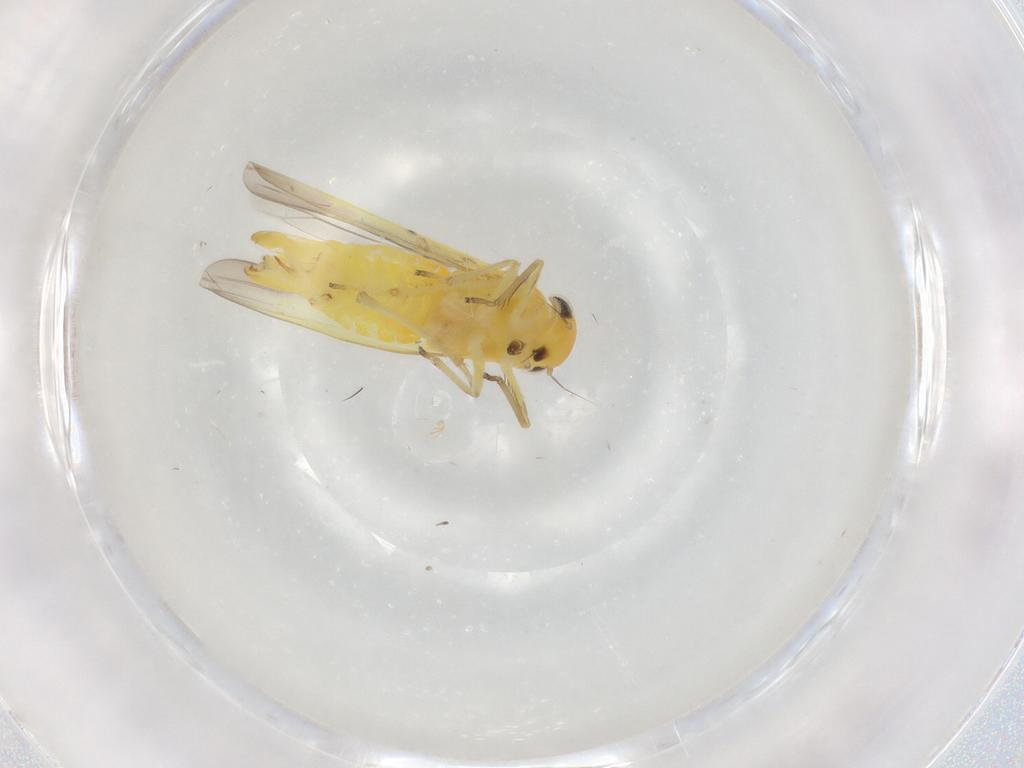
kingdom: Animalia
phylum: Arthropoda
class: Insecta
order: Hemiptera
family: Cicadellidae
